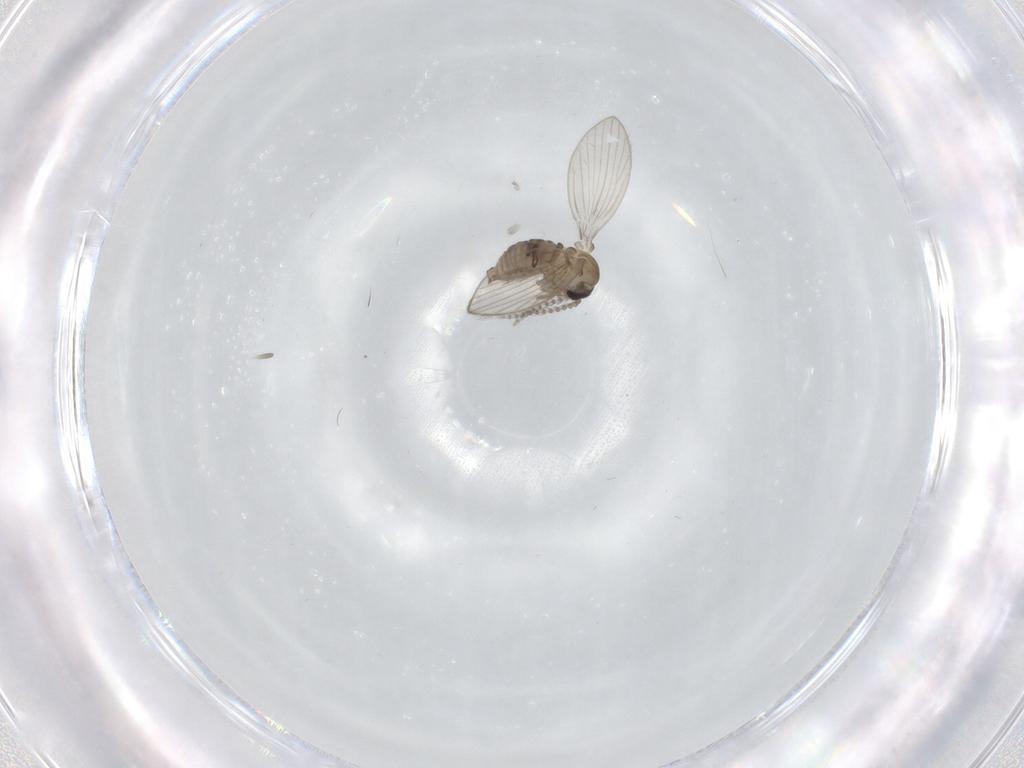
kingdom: Animalia
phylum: Arthropoda
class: Insecta
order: Diptera
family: Psychodidae
